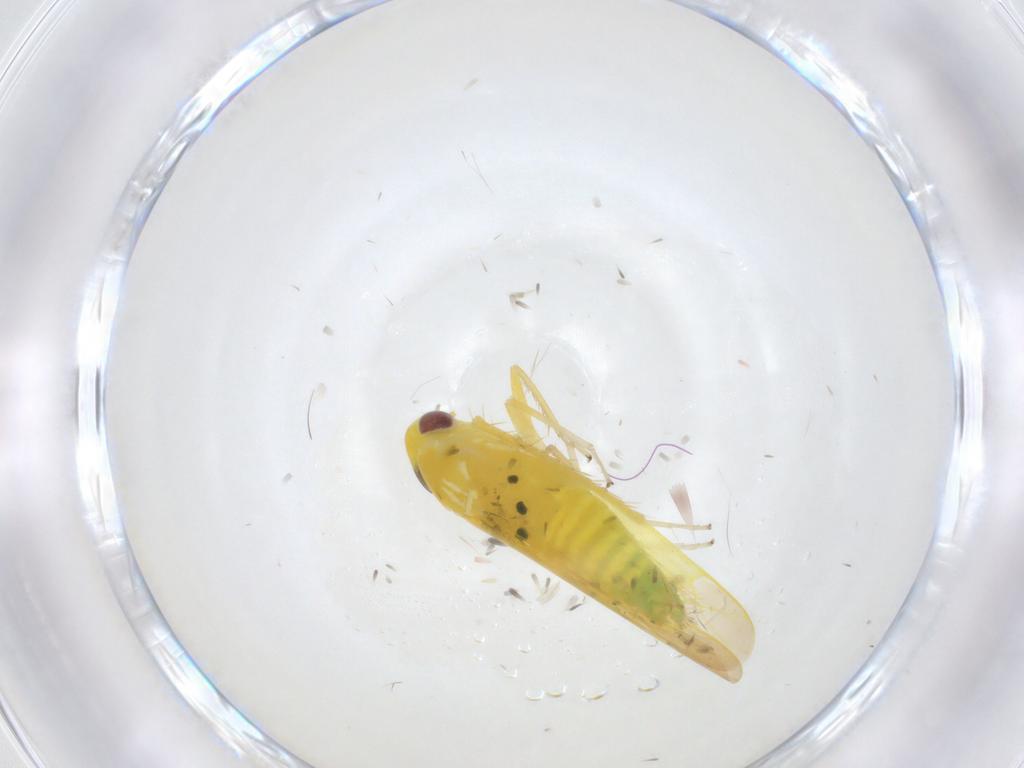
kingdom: Animalia
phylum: Arthropoda
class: Insecta
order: Hemiptera
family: Cicadellidae
